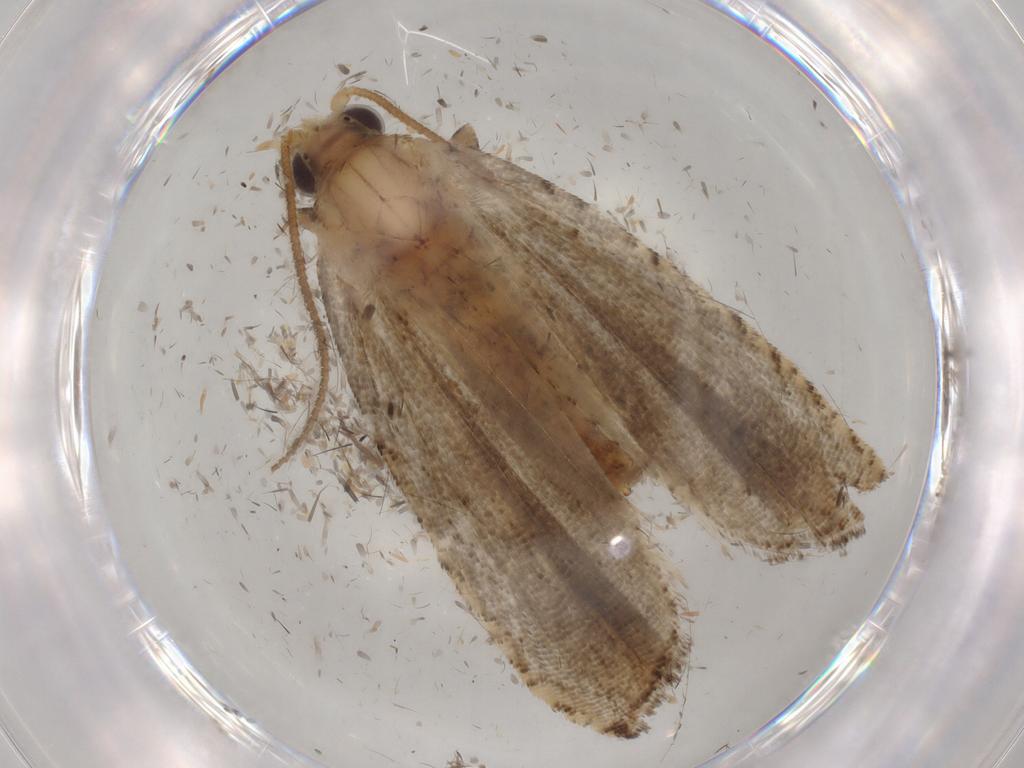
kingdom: Animalia
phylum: Arthropoda
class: Insecta
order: Lepidoptera
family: Tortricidae
